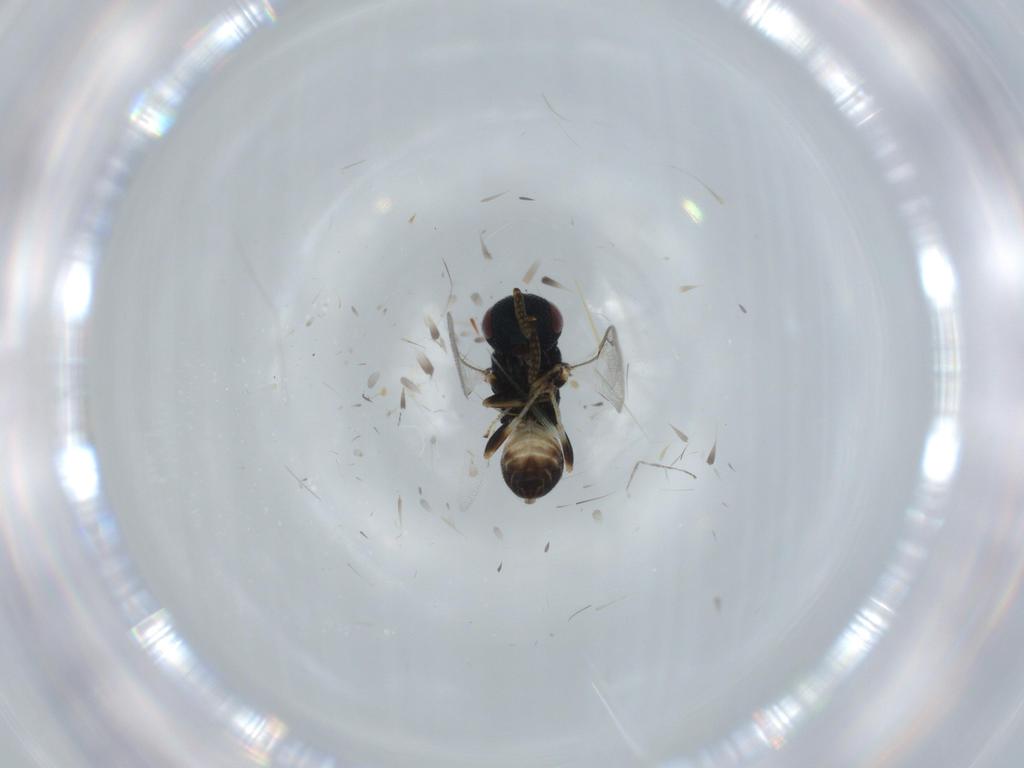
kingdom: Animalia
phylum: Arthropoda
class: Insecta
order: Hymenoptera
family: Pteromalidae
